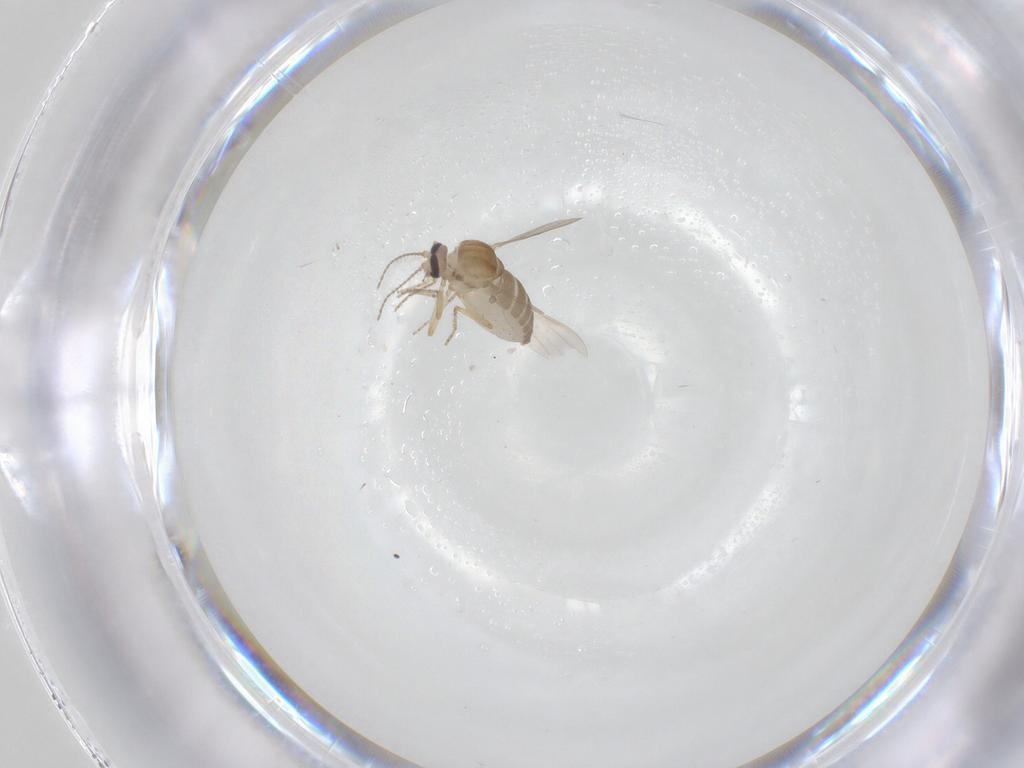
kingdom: Animalia
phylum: Arthropoda
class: Insecta
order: Diptera
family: Ceratopogonidae
